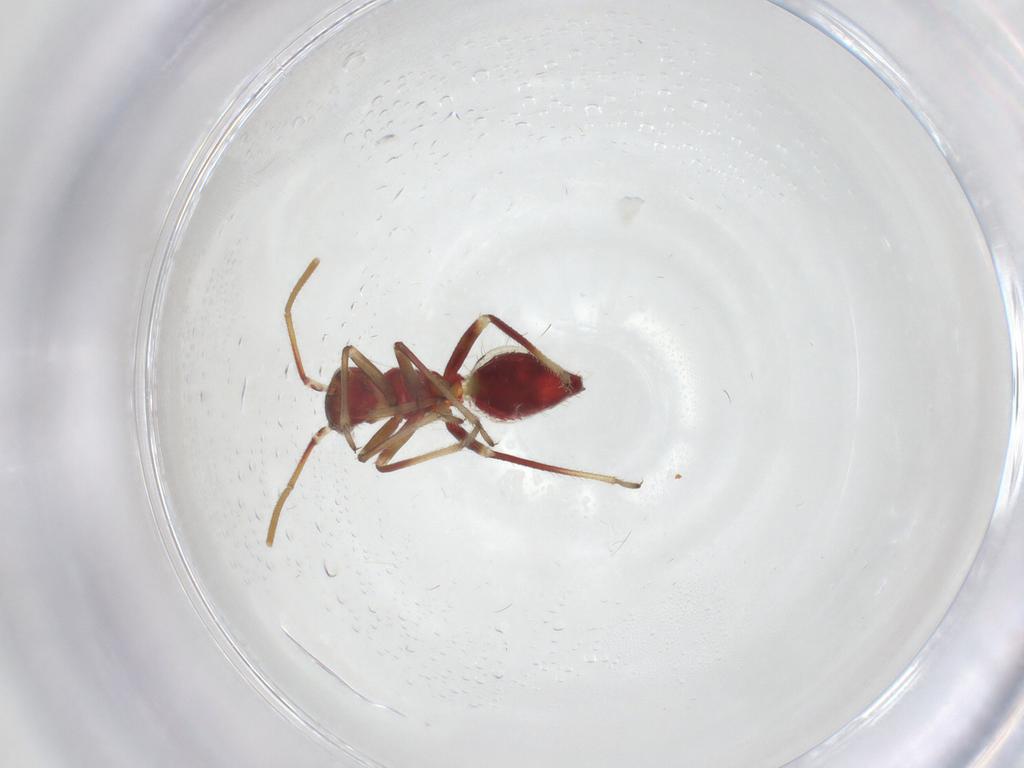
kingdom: Animalia
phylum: Arthropoda
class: Insecta
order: Hemiptera
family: Miridae
